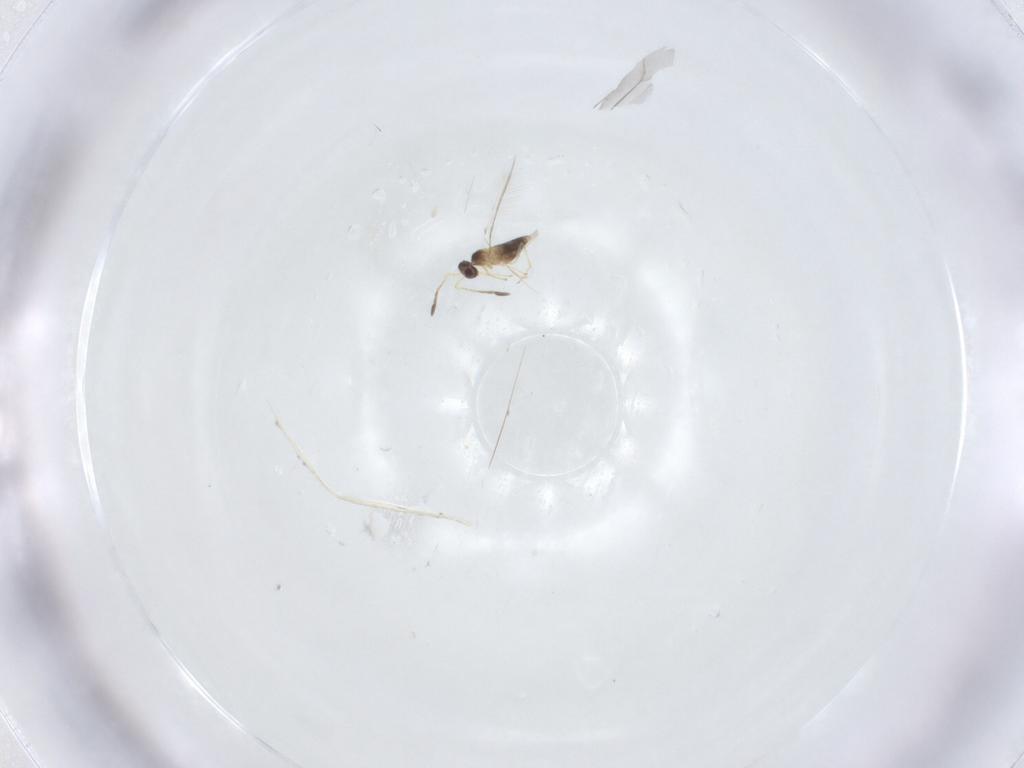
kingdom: Animalia
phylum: Arthropoda
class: Insecta
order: Hymenoptera
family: Mymaridae
